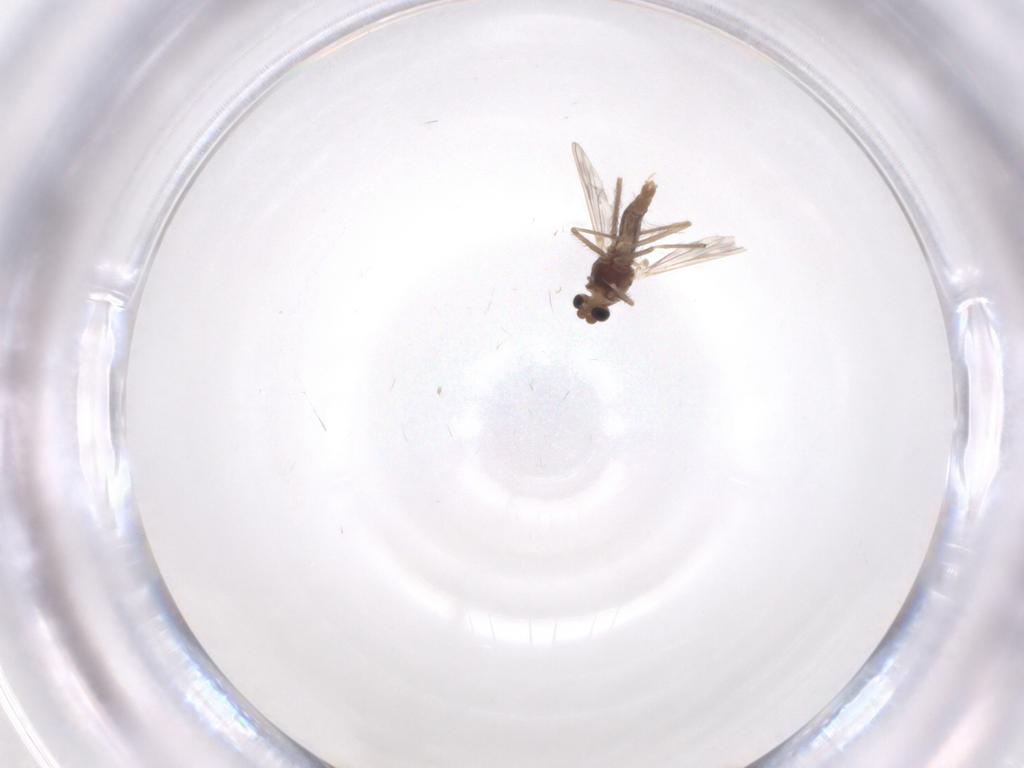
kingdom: Animalia
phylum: Arthropoda
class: Insecta
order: Diptera
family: Chironomidae
